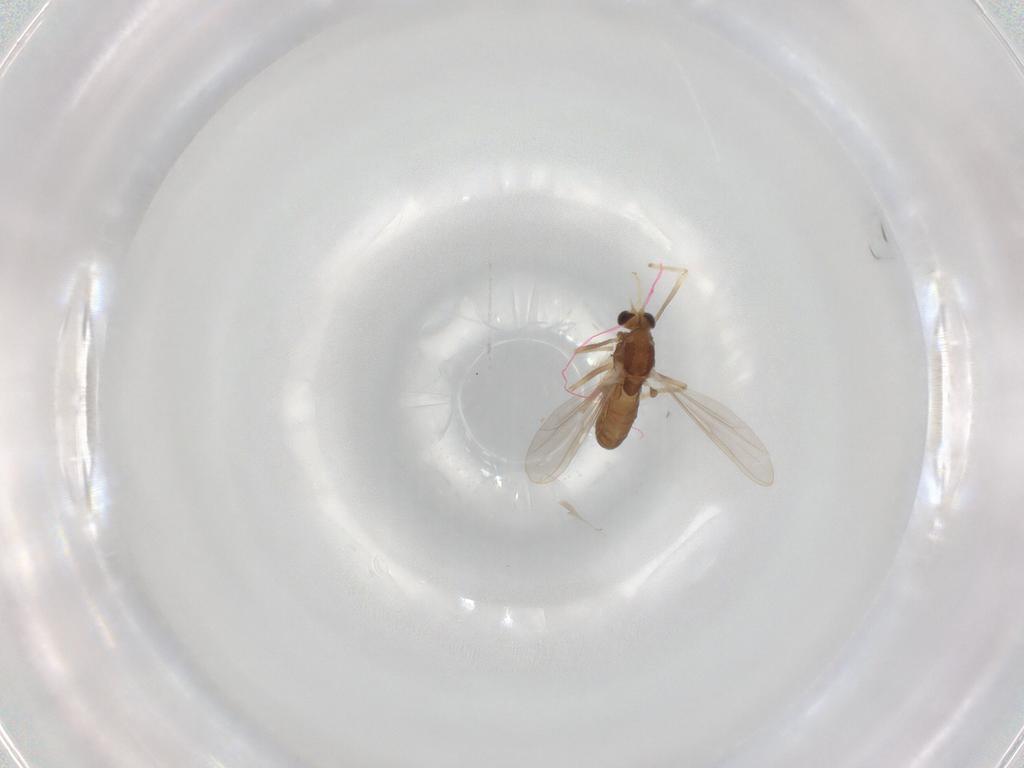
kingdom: Animalia
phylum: Arthropoda
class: Insecta
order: Diptera
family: Chironomidae
